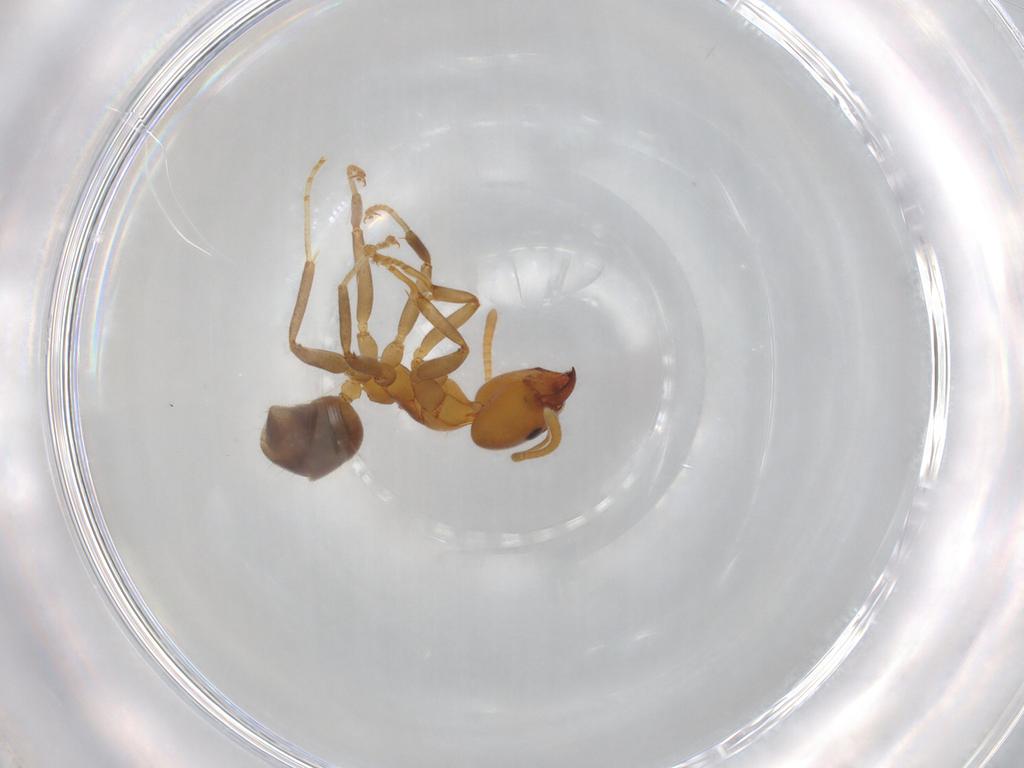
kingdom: Animalia
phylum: Arthropoda
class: Insecta
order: Hymenoptera
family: Formicidae
